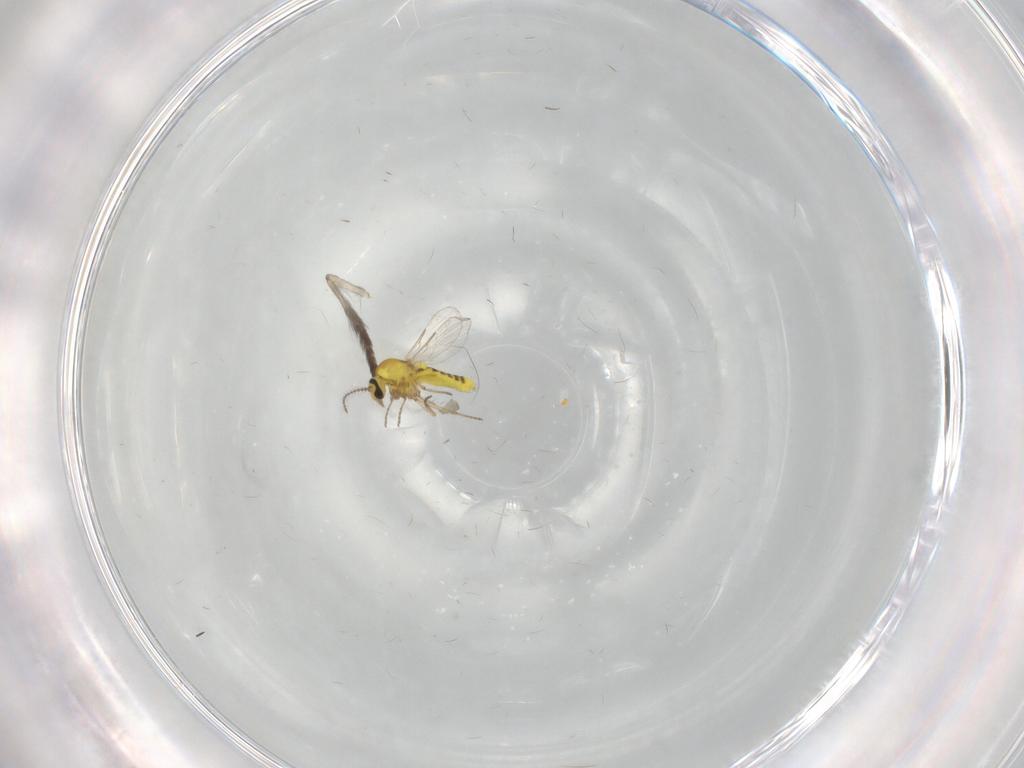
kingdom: Animalia
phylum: Arthropoda
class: Insecta
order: Diptera
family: Ceratopogonidae
